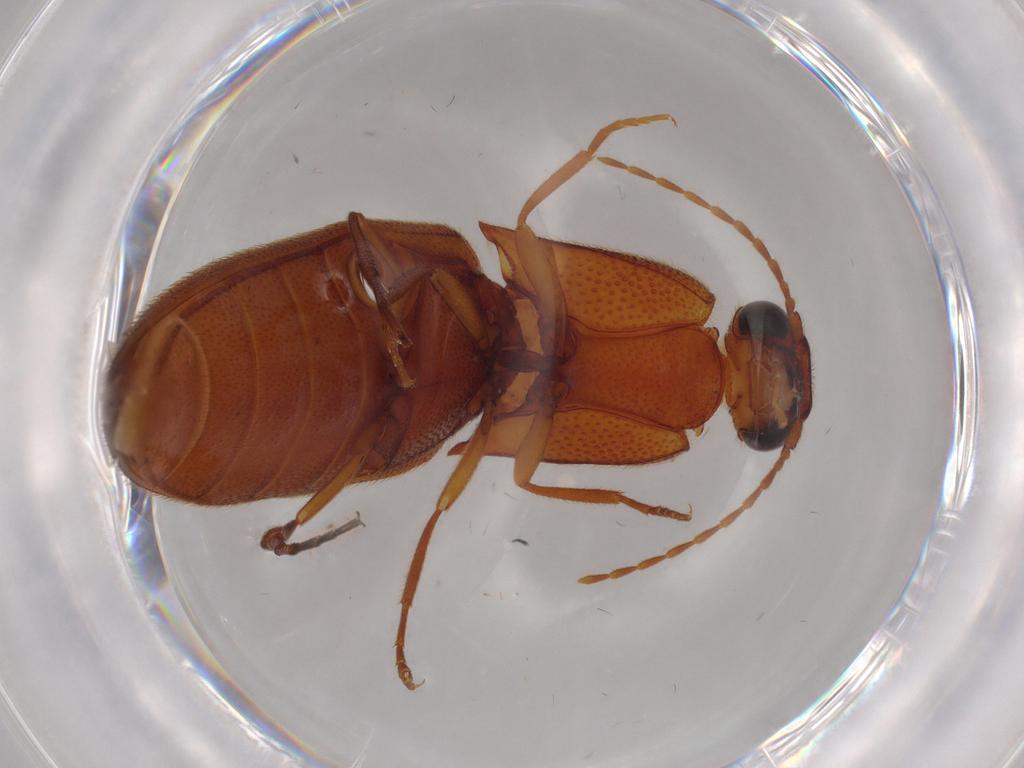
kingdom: Animalia
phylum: Arthropoda
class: Insecta
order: Coleoptera
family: Elateridae
